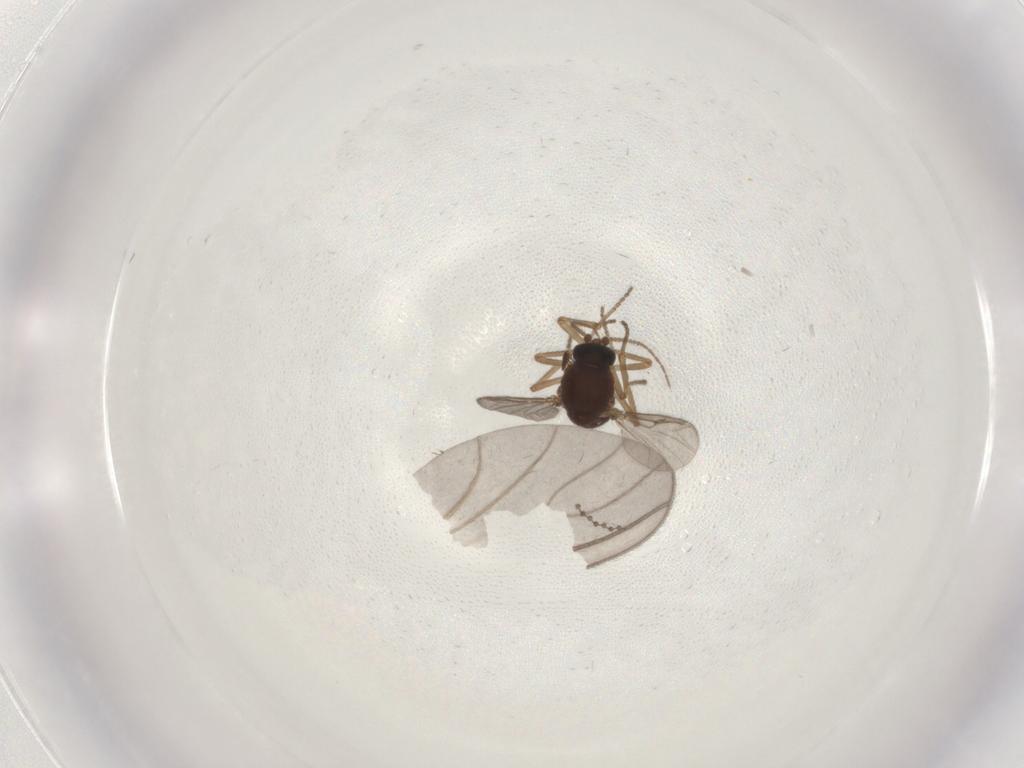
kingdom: Animalia
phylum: Arthropoda
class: Insecta
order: Diptera
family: Ceratopogonidae
